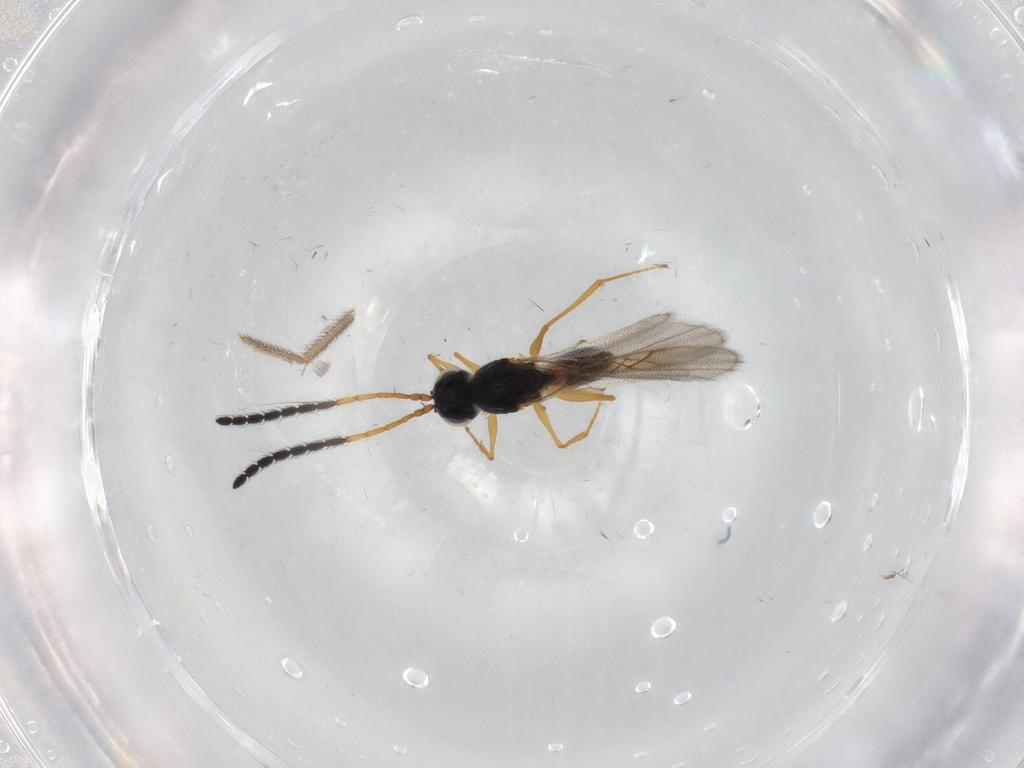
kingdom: Animalia
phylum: Arthropoda
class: Insecta
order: Hymenoptera
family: Figitidae
